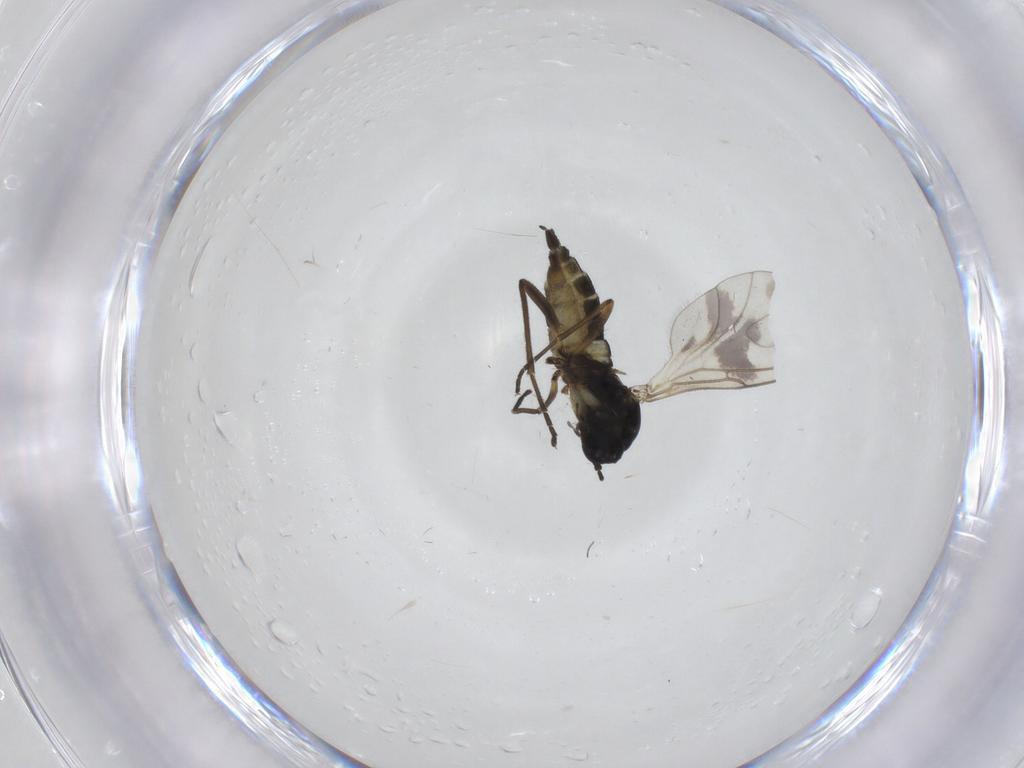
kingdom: Animalia
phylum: Arthropoda
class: Insecta
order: Diptera
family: Sciaridae
